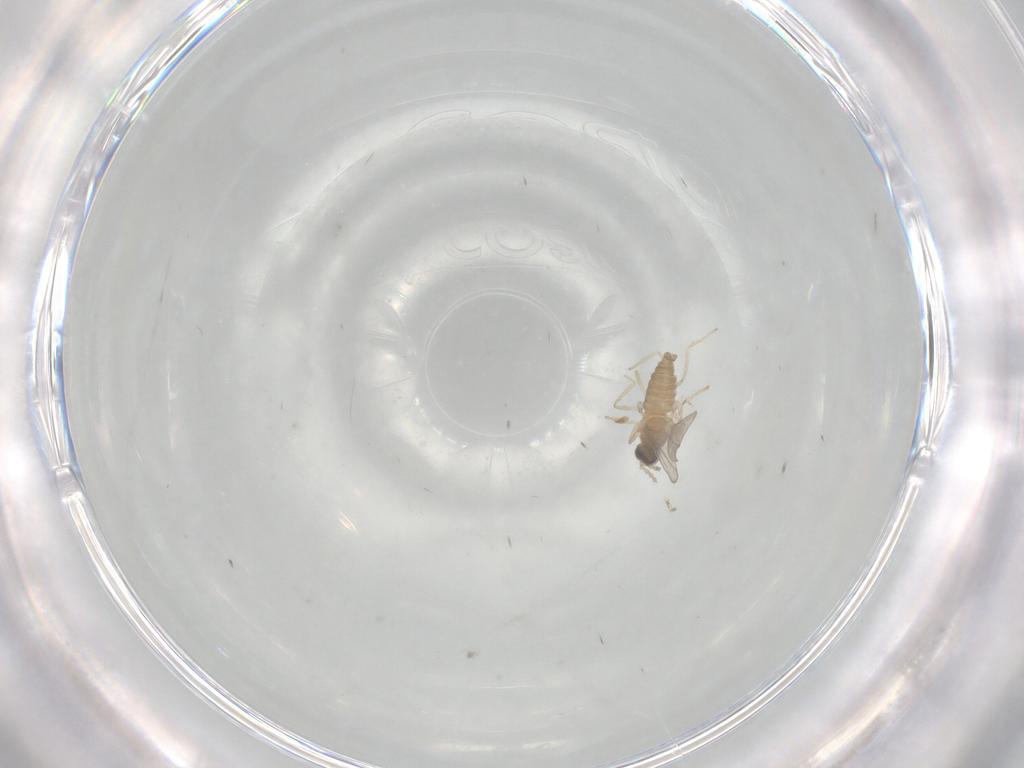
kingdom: Animalia
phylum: Arthropoda
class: Insecta
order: Diptera
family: Cecidomyiidae
